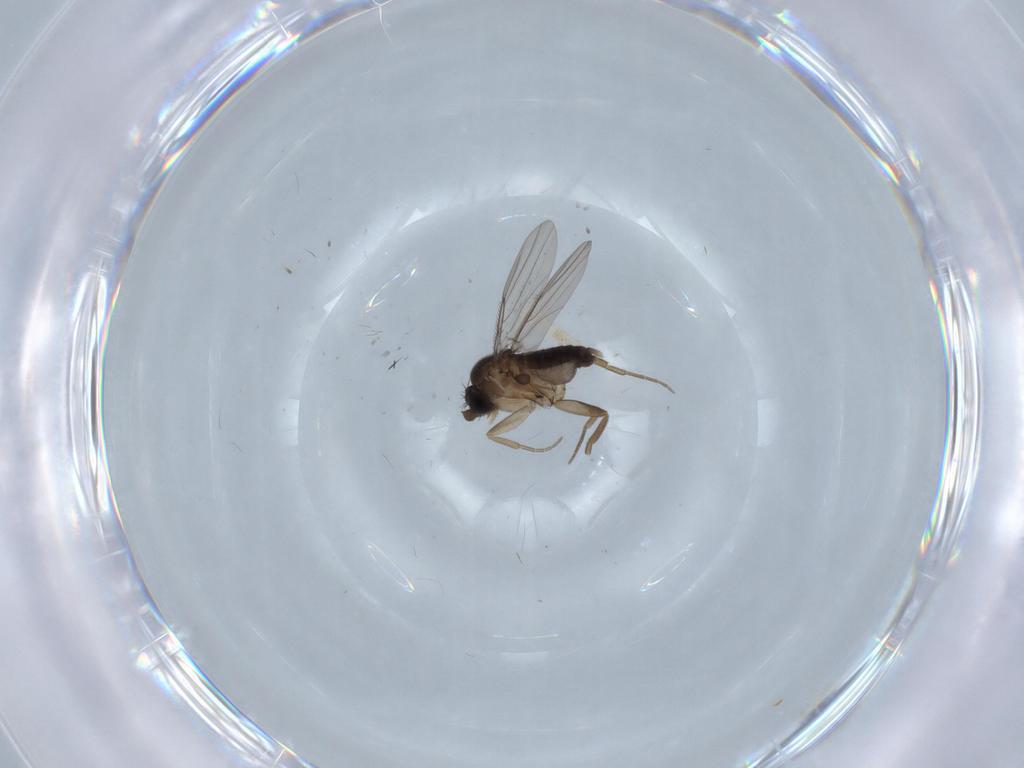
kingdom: Animalia
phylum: Arthropoda
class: Insecta
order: Diptera
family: Phoridae
